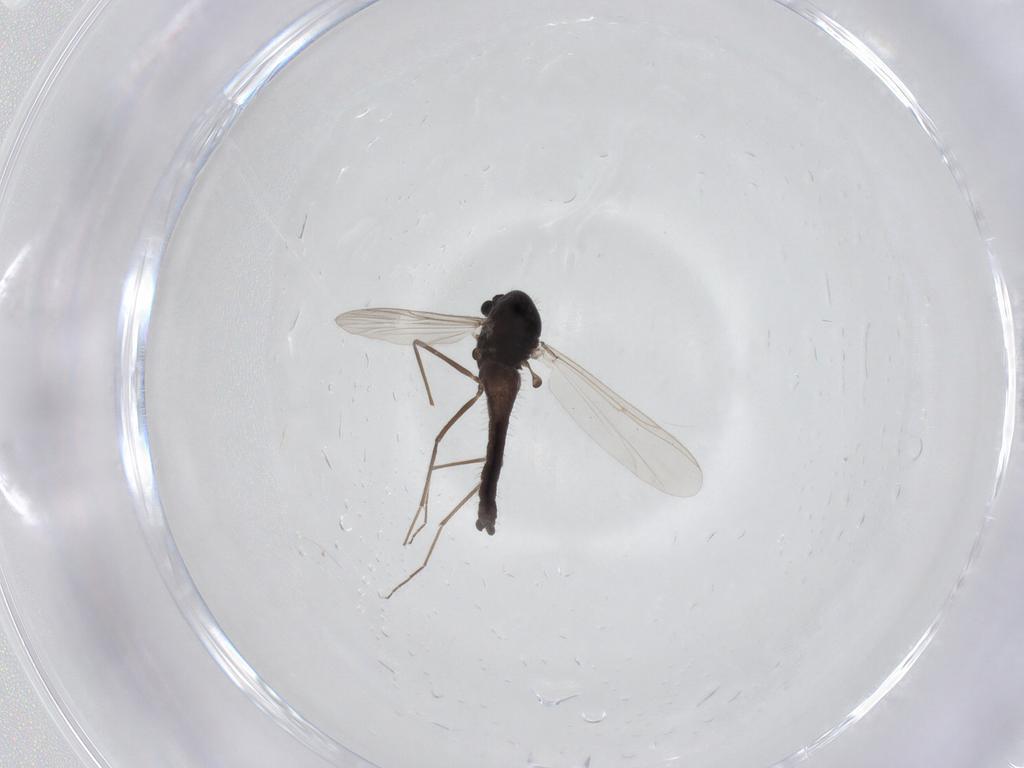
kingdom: Animalia
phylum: Arthropoda
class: Insecta
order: Diptera
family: Chironomidae
